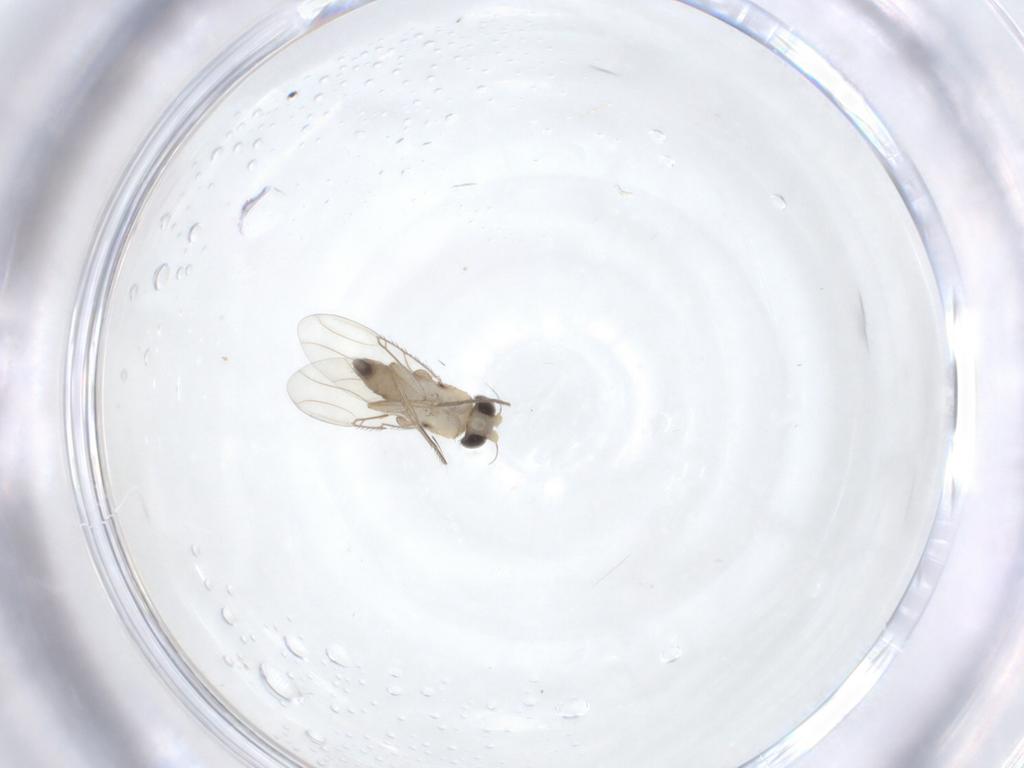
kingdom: Animalia
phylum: Arthropoda
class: Insecta
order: Diptera
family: Phoridae
